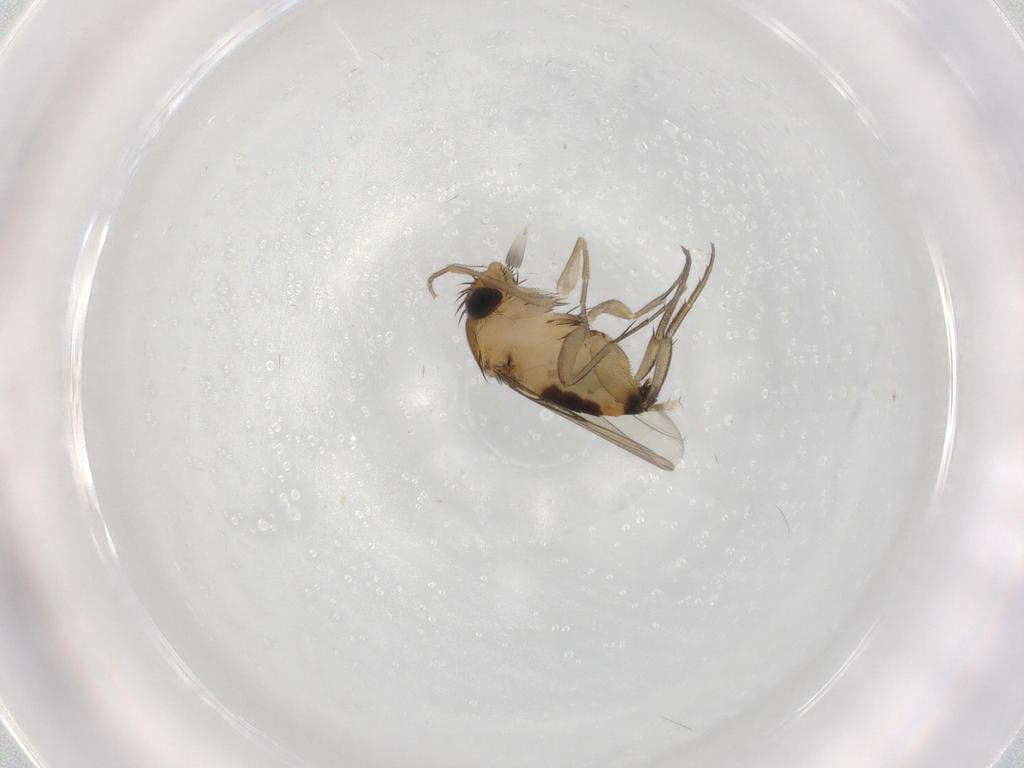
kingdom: Animalia
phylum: Arthropoda
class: Insecta
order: Diptera
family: Phoridae
